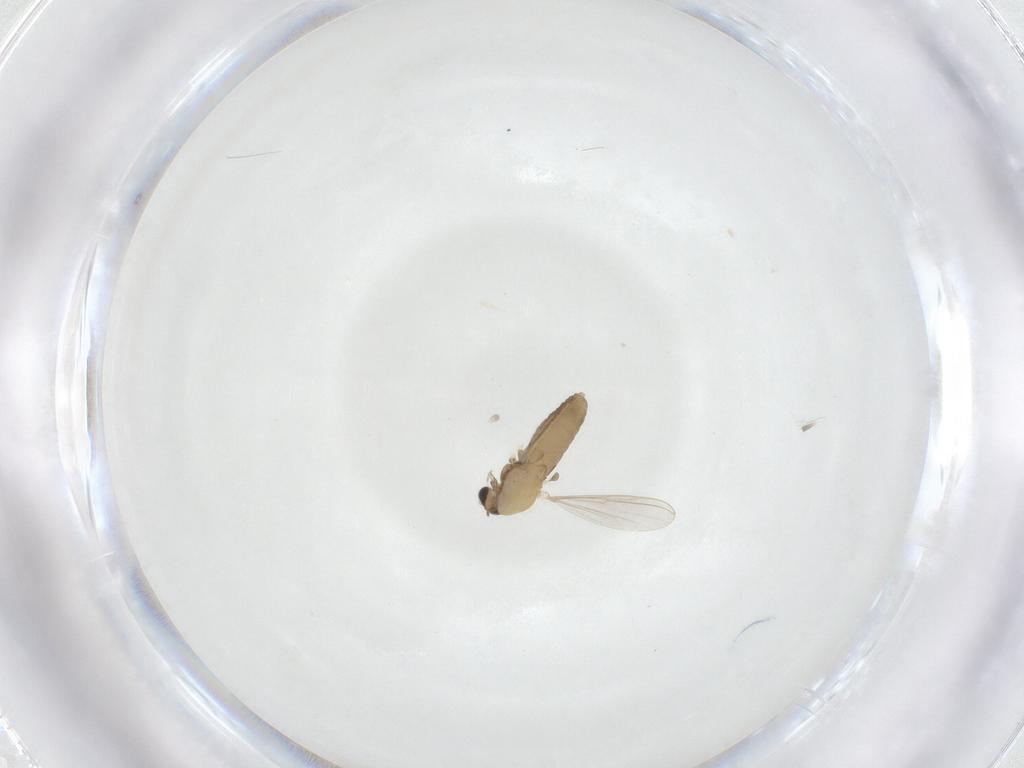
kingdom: Animalia
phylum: Arthropoda
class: Insecta
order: Diptera
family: Chironomidae
